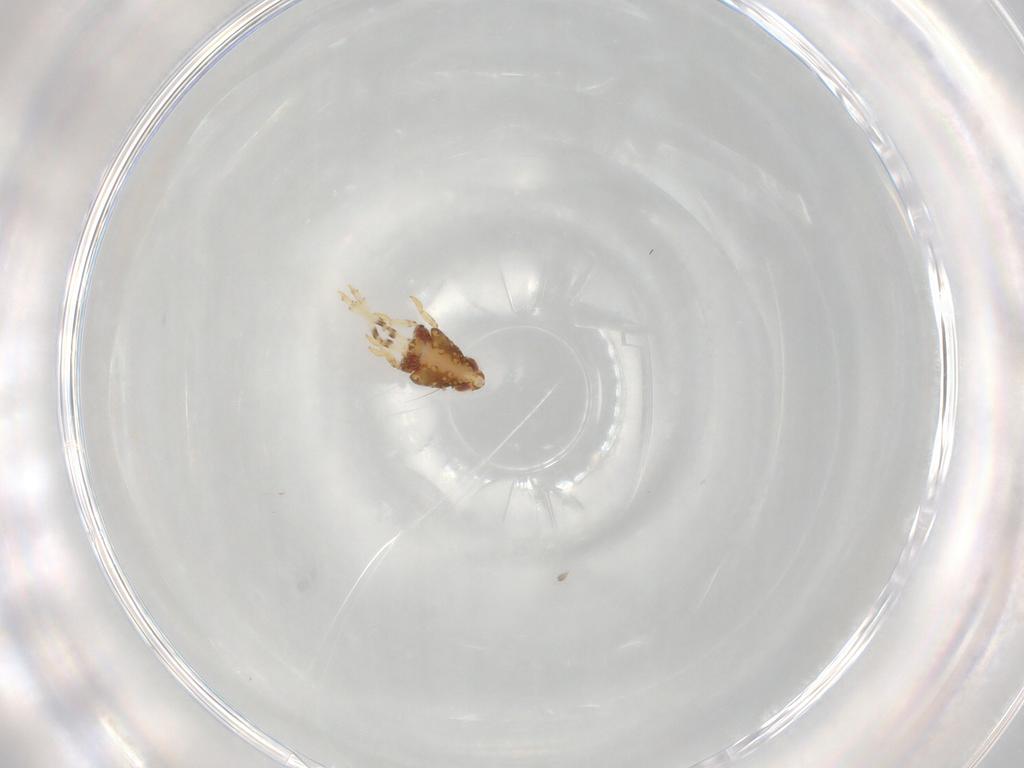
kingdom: Animalia
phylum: Arthropoda
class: Insecta
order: Hemiptera
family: Issidae
